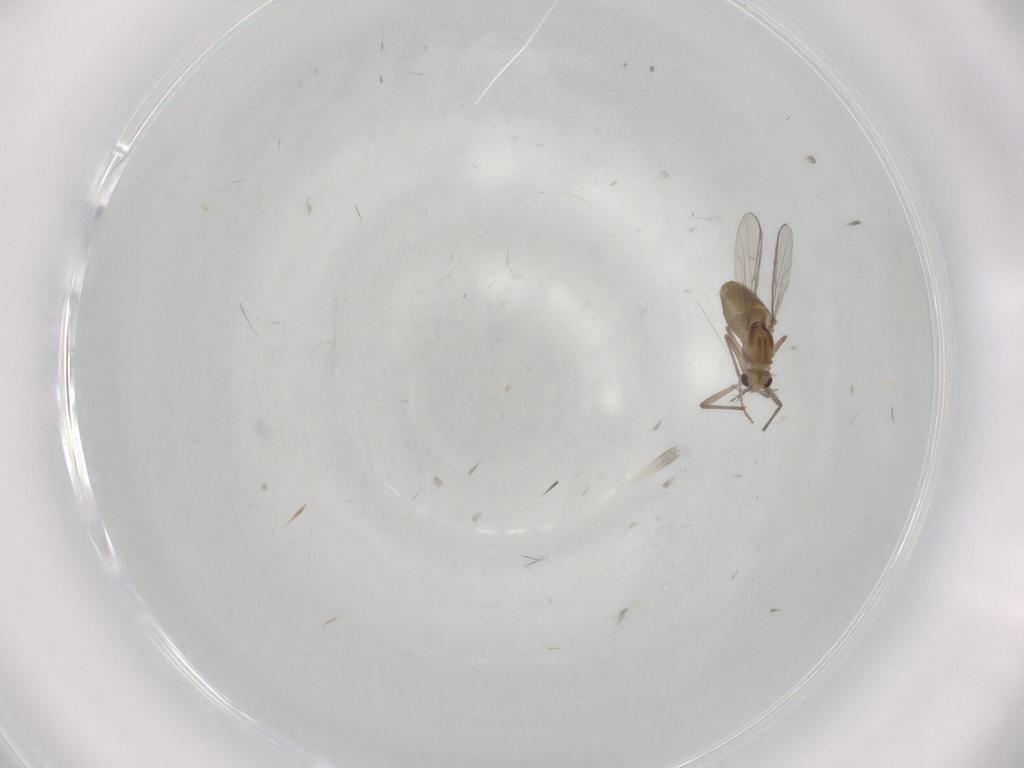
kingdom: Animalia
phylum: Arthropoda
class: Insecta
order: Diptera
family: Chironomidae
